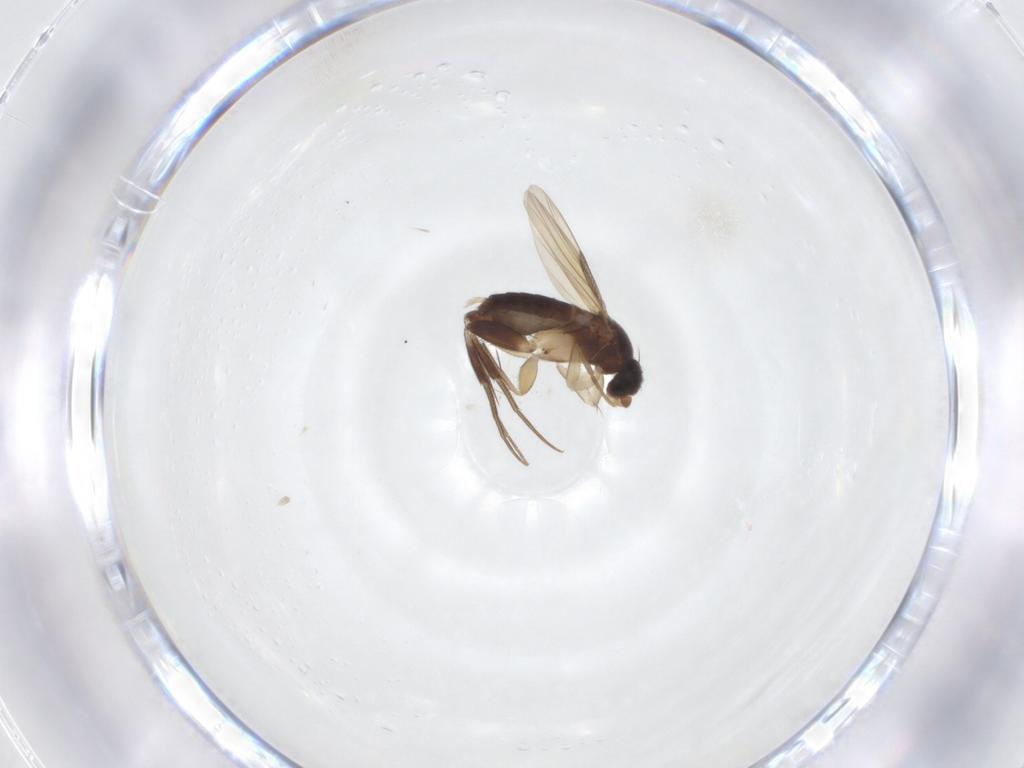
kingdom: Animalia
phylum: Arthropoda
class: Insecta
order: Diptera
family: Phoridae
